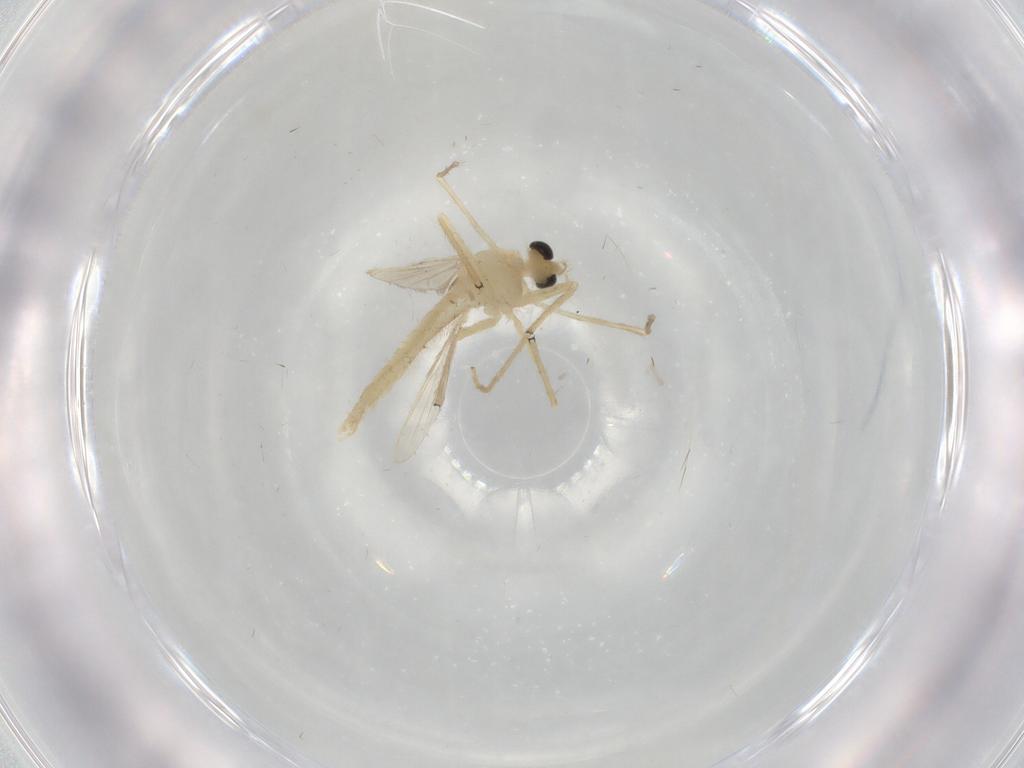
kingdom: Animalia
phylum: Arthropoda
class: Insecta
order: Diptera
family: Chironomidae
